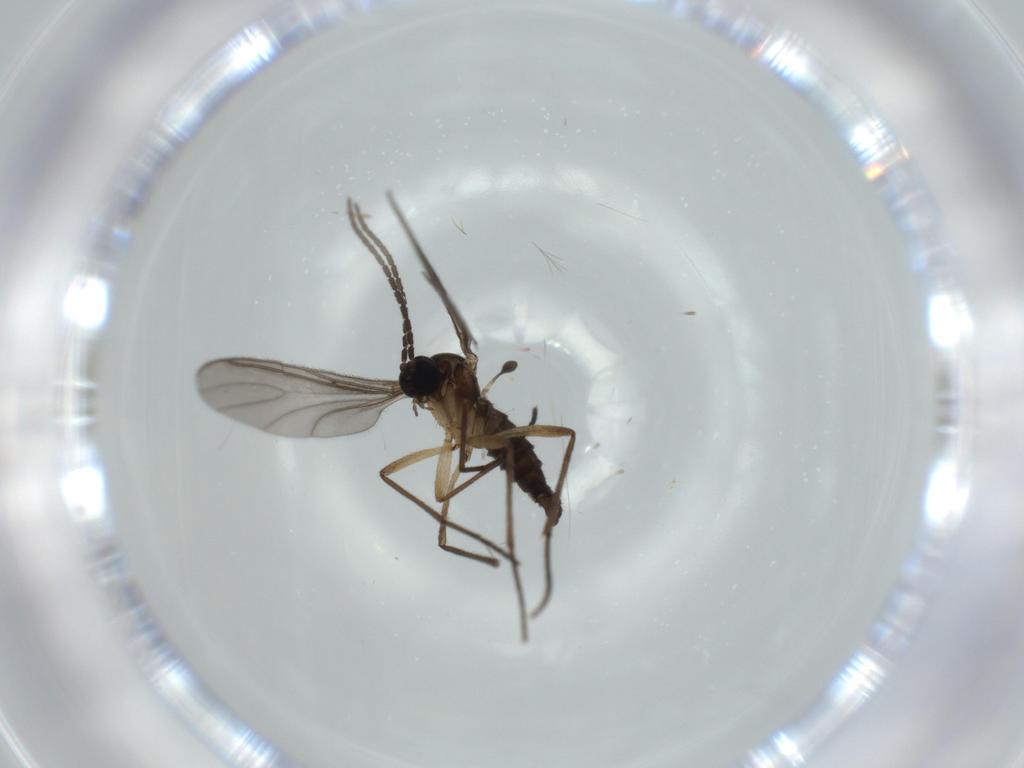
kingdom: Animalia
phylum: Arthropoda
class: Insecta
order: Diptera
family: Sciaridae
